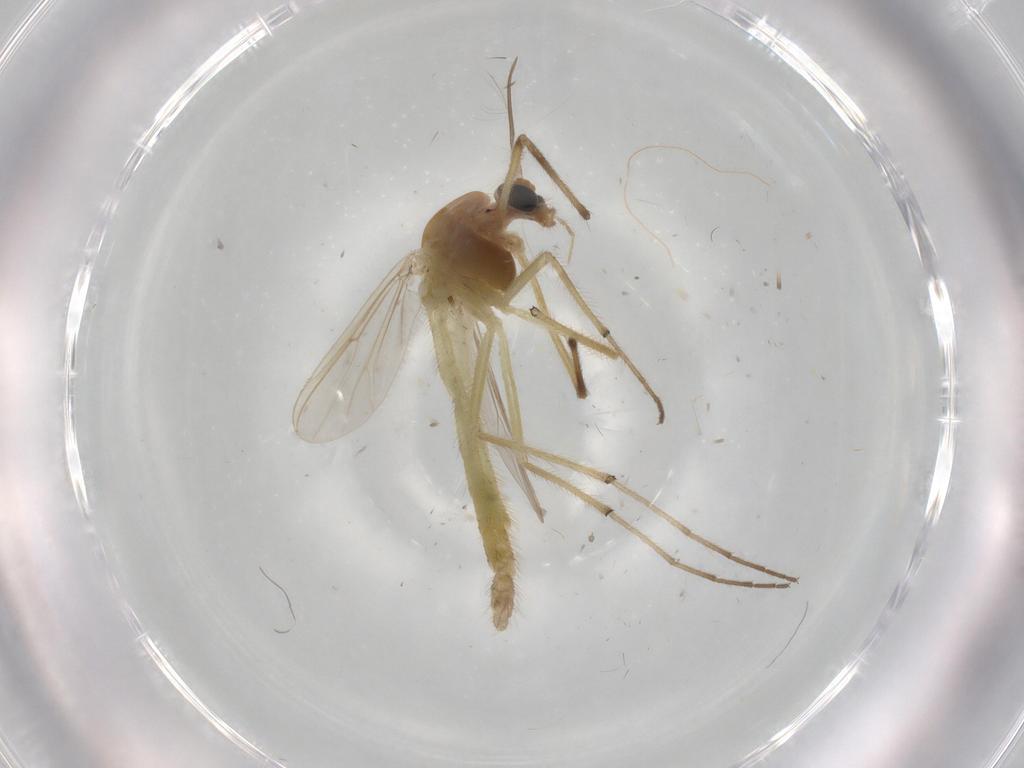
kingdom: Animalia
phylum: Arthropoda
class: Insecta
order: Diptera
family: Chironomidae
